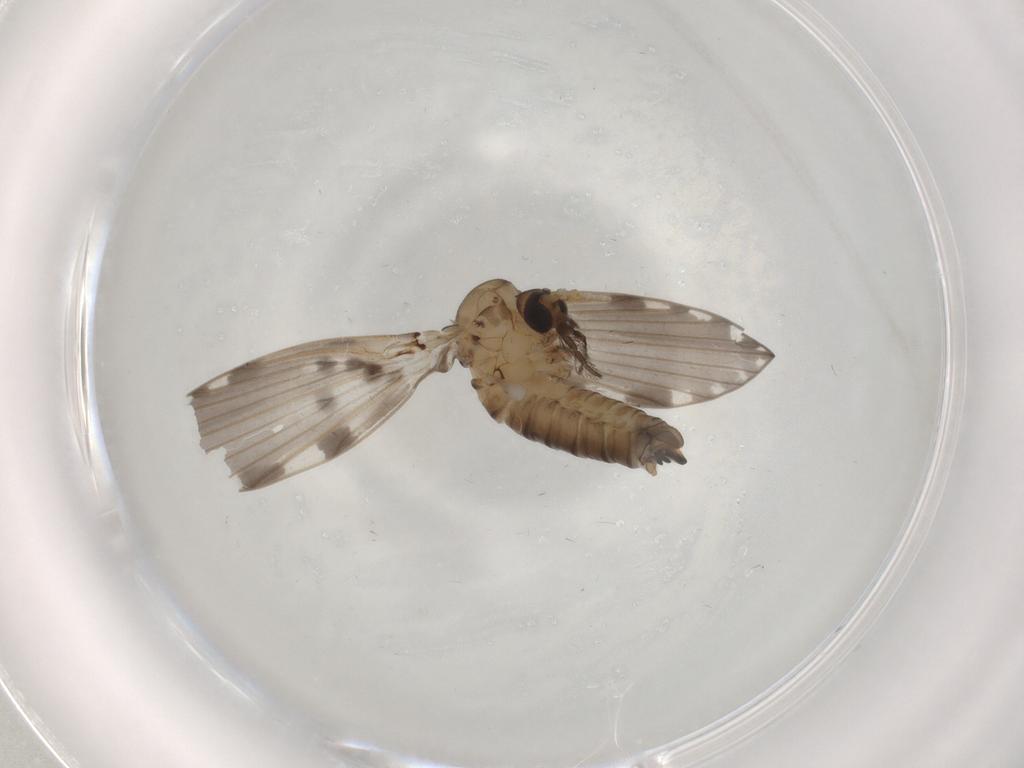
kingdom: Animalia
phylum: Arthropoda
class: Insecta
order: Diptera
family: Psychodidae
